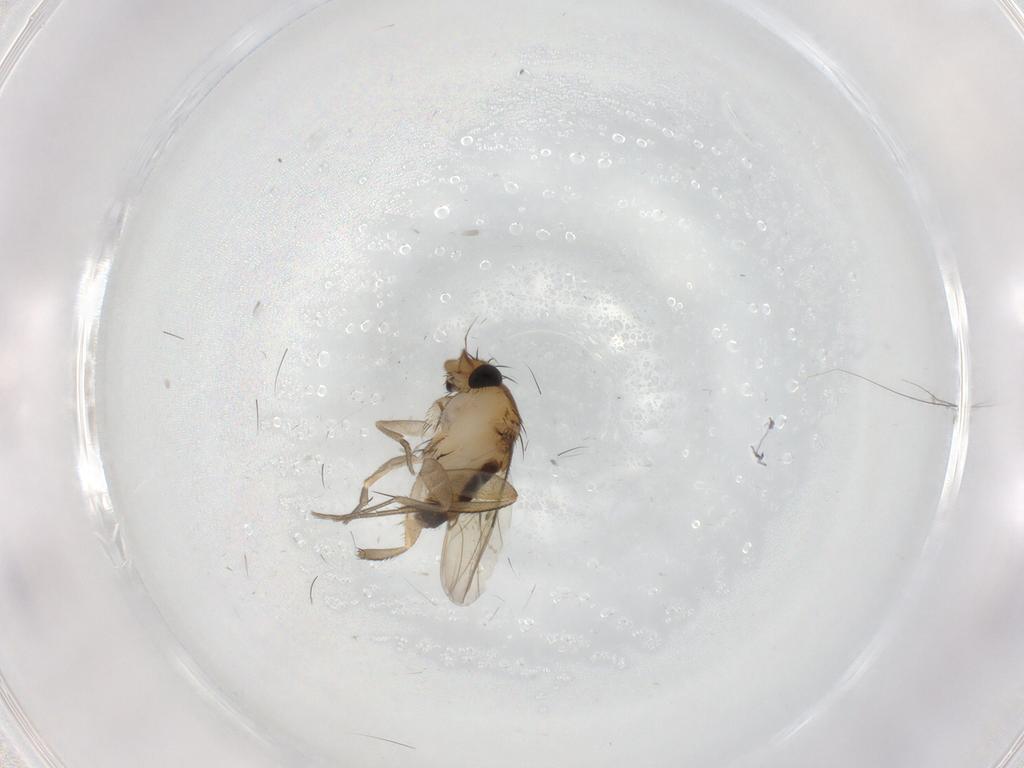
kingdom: Animalia
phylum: Arthropoda
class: Insecta
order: Diptera
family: Phoridae
